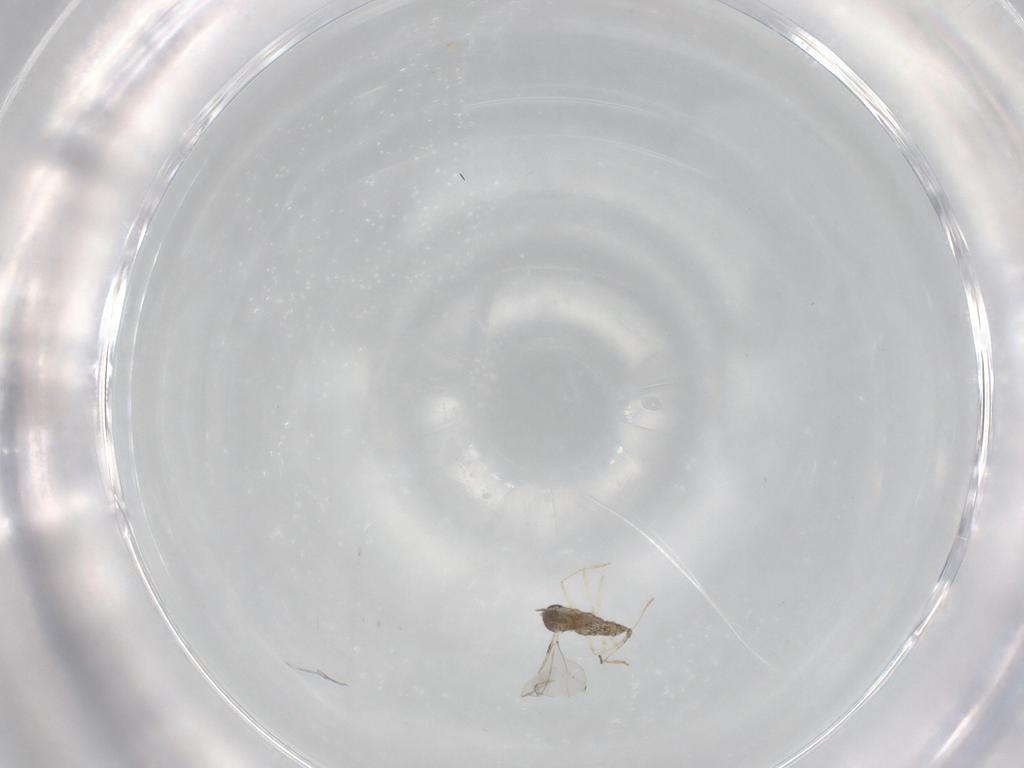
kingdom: Animalia
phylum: Arthropoda
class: Insecta
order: Diptera
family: Cecidomyiidae
